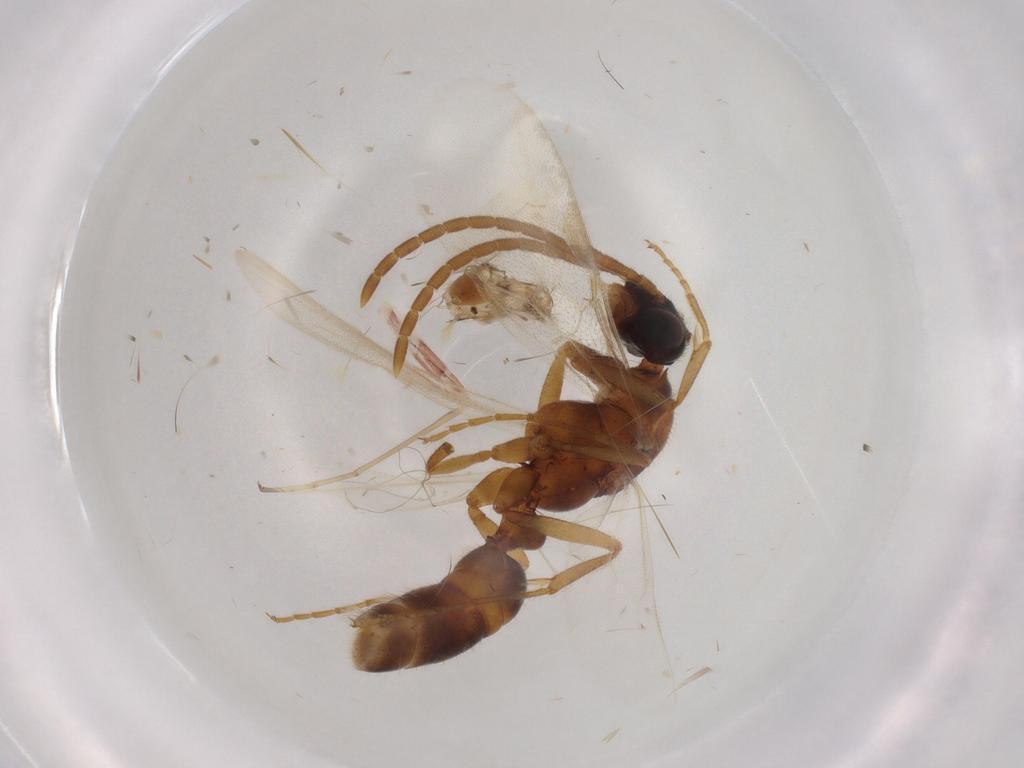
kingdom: Animalia
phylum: Arthropoda
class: Insecta
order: Hymenoptera
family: Formicidae
